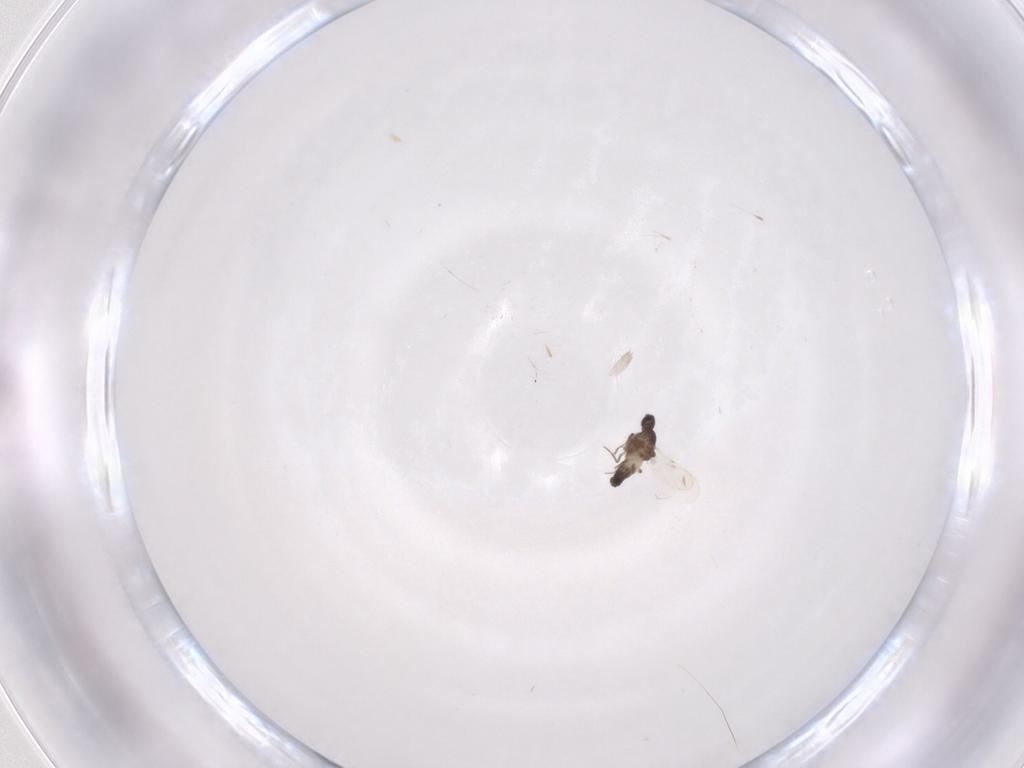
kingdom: Animalia
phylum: Arthropoda
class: Insecta
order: Diptera
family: Cecidomyiidae
